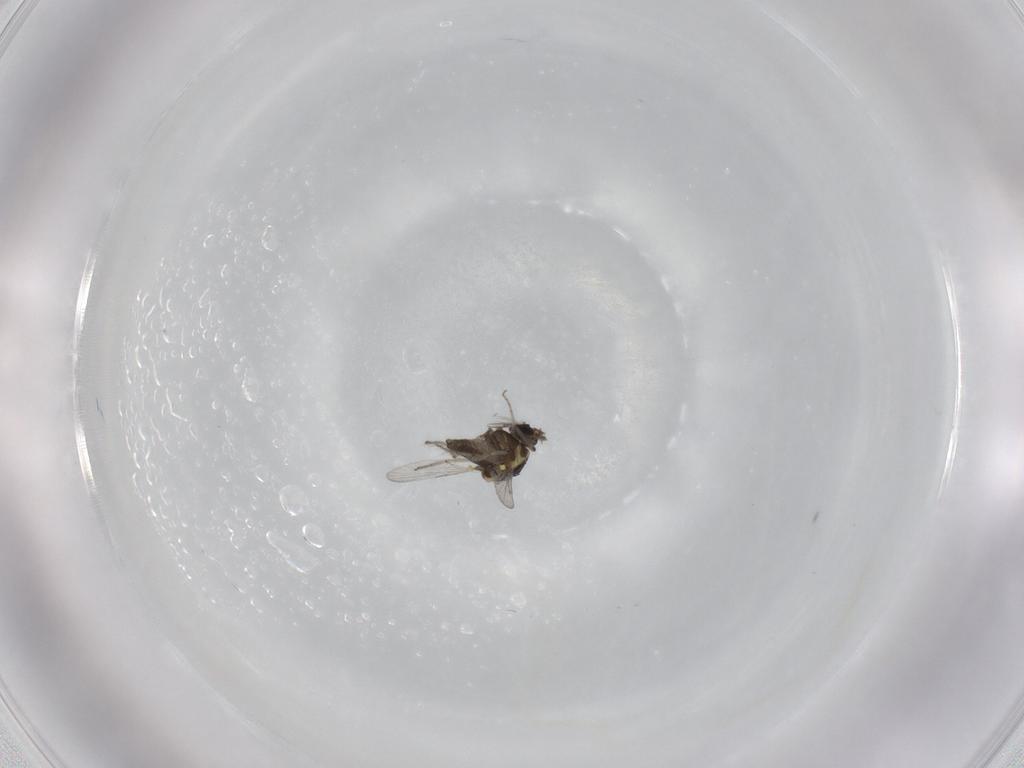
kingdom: Animalia
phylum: Arthropoda
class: Insecta
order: Diptera
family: Ceratopogonidae
